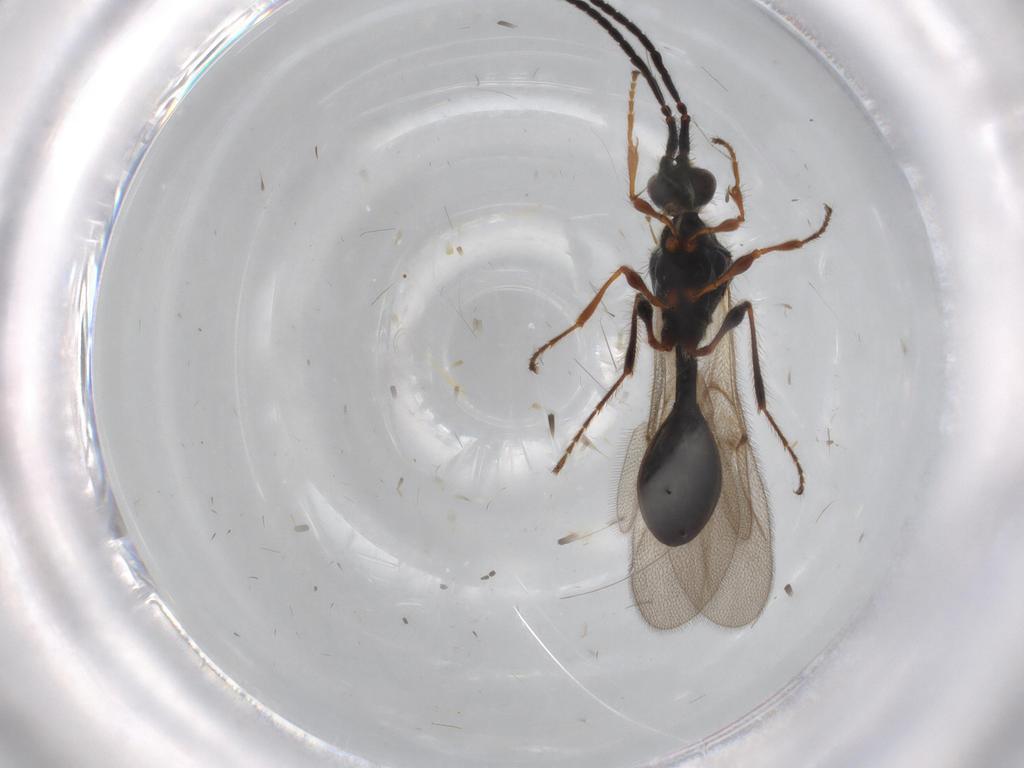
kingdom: Animalia
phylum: Arthropoda
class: Insecta
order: Hymenoptera
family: Diapriidae
